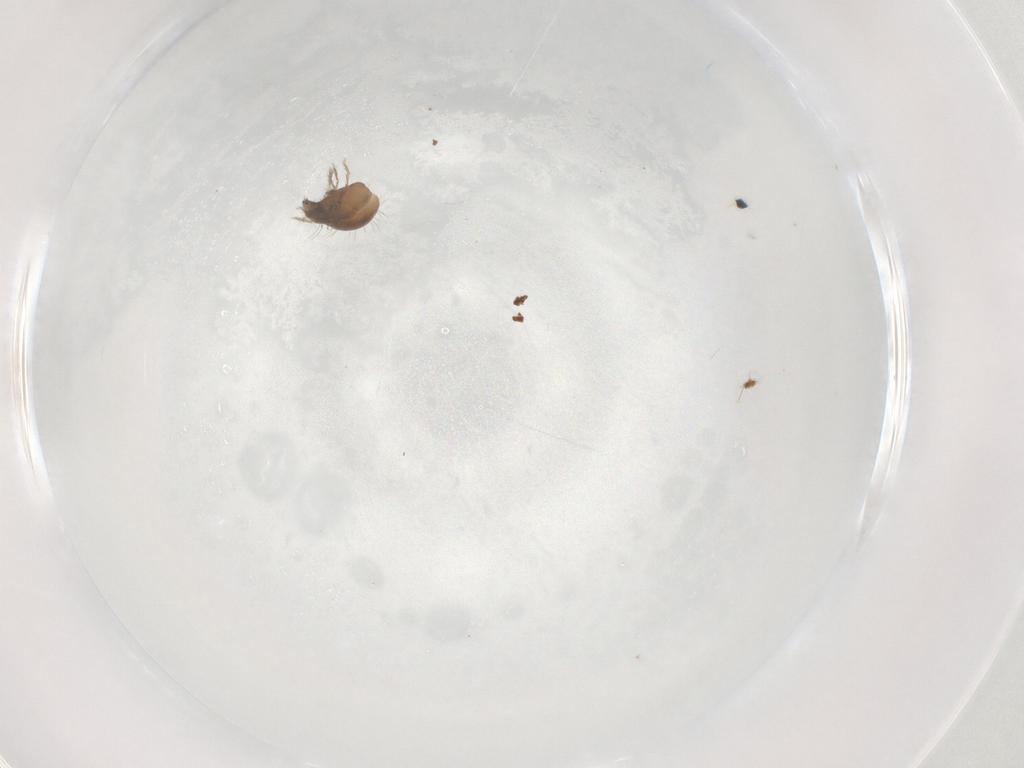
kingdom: Animalia
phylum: Arthropoda
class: Arachnida
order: Sarcoptiformes
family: Humerobatidae
